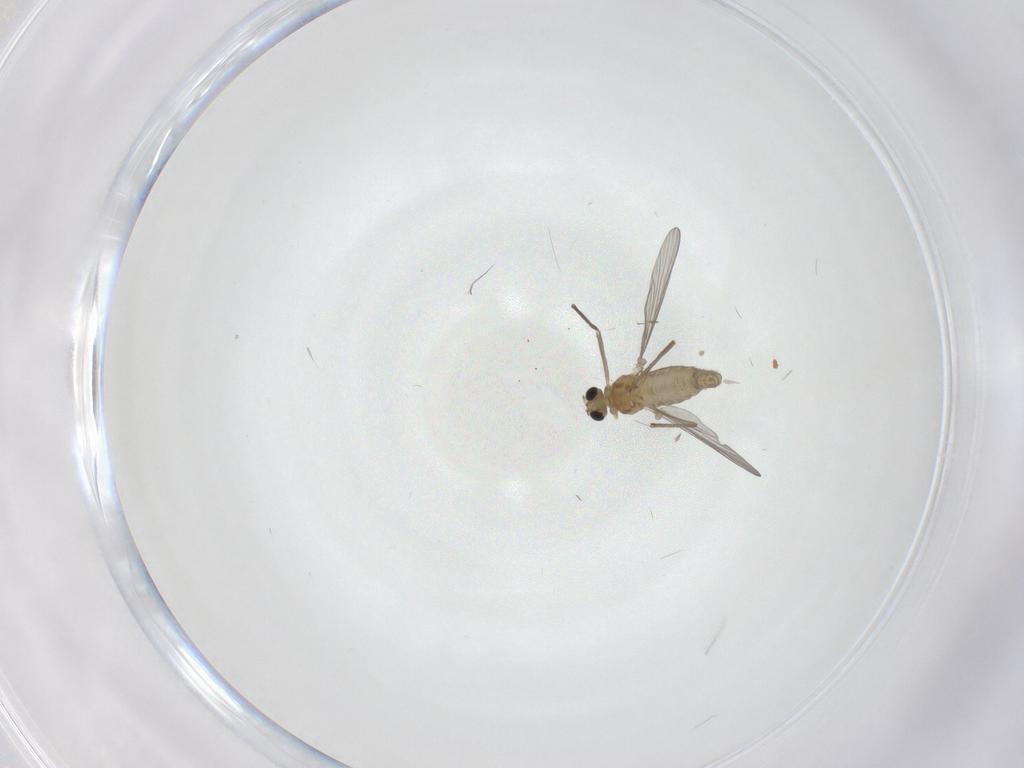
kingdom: Animalia
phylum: Arthropoda
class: Insecta
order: Diptera
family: Chironomidae
